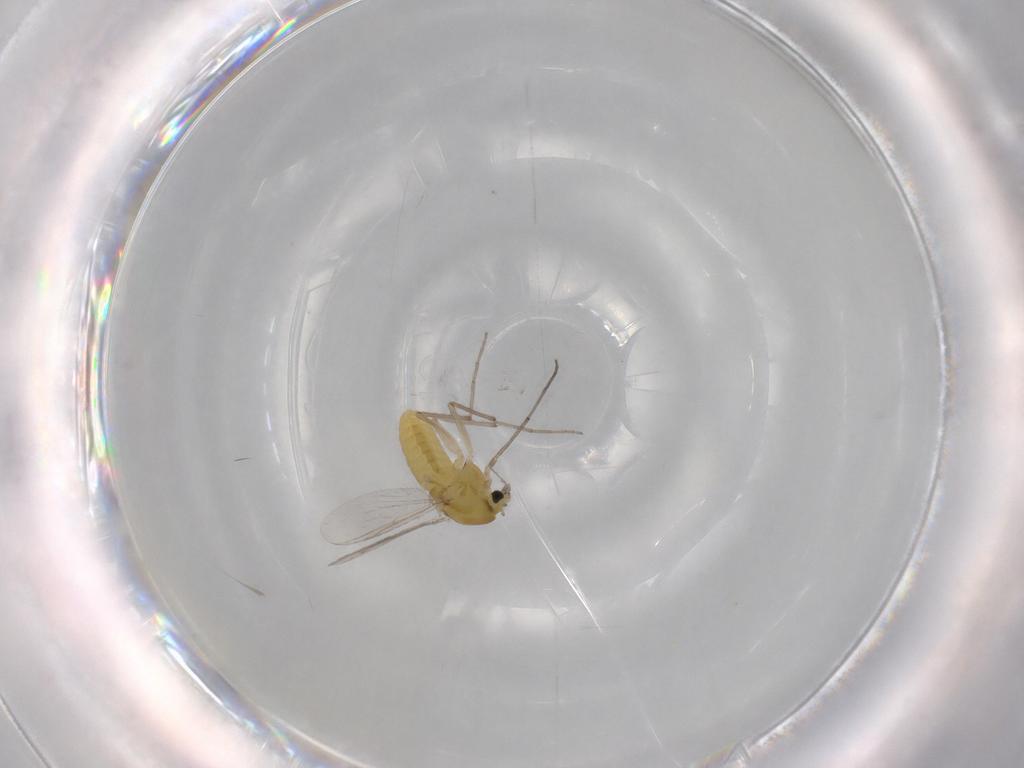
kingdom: Animalia
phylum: Arthropoda
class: Insecta
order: Diptera
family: Chironomidae
